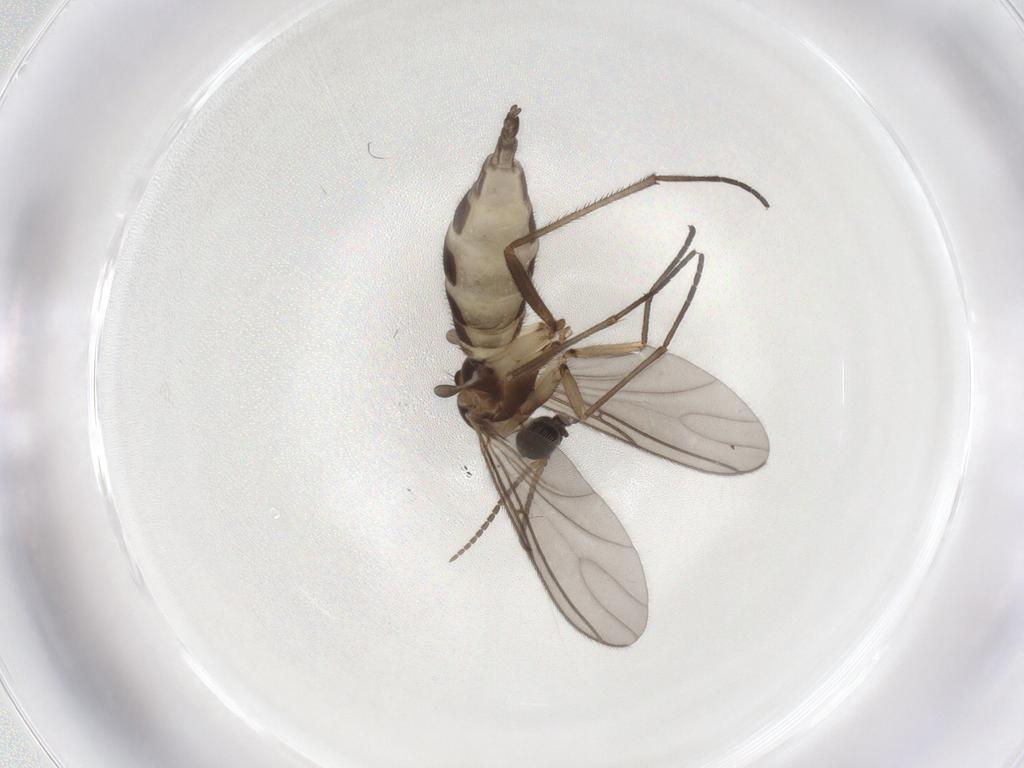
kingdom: Animalia
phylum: Arthropoda
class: Insecta
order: Diptera
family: Sciaridae
